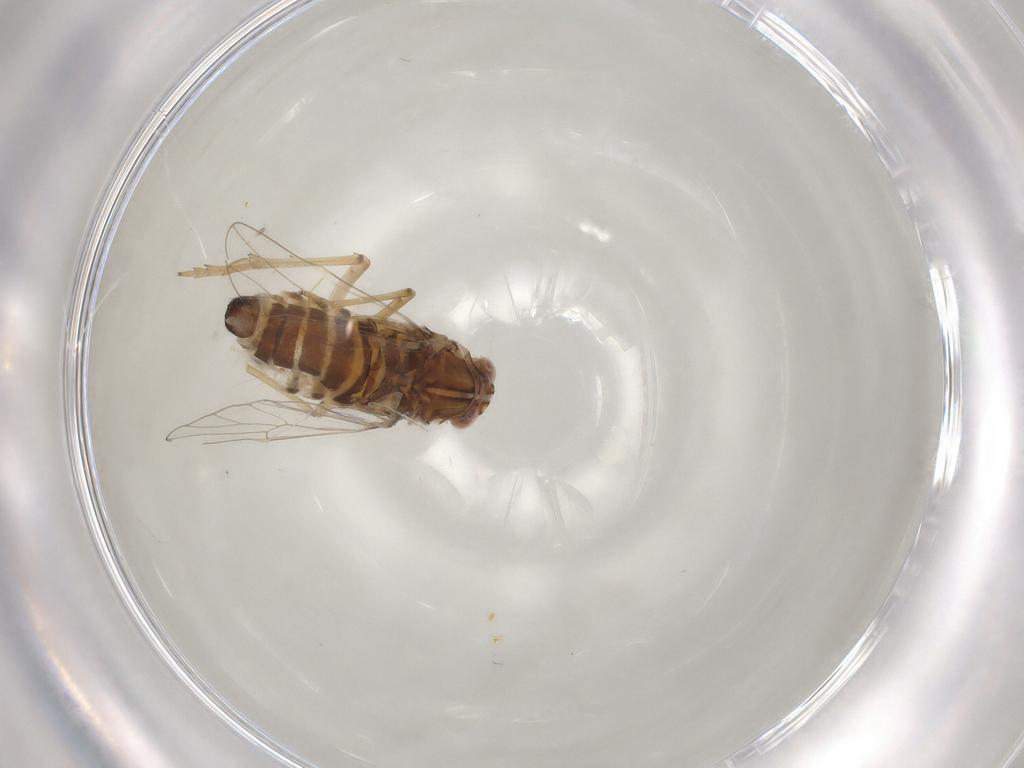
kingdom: Animalia
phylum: Arthropoda
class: Insecta
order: Hemiptera
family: Delphacidae
